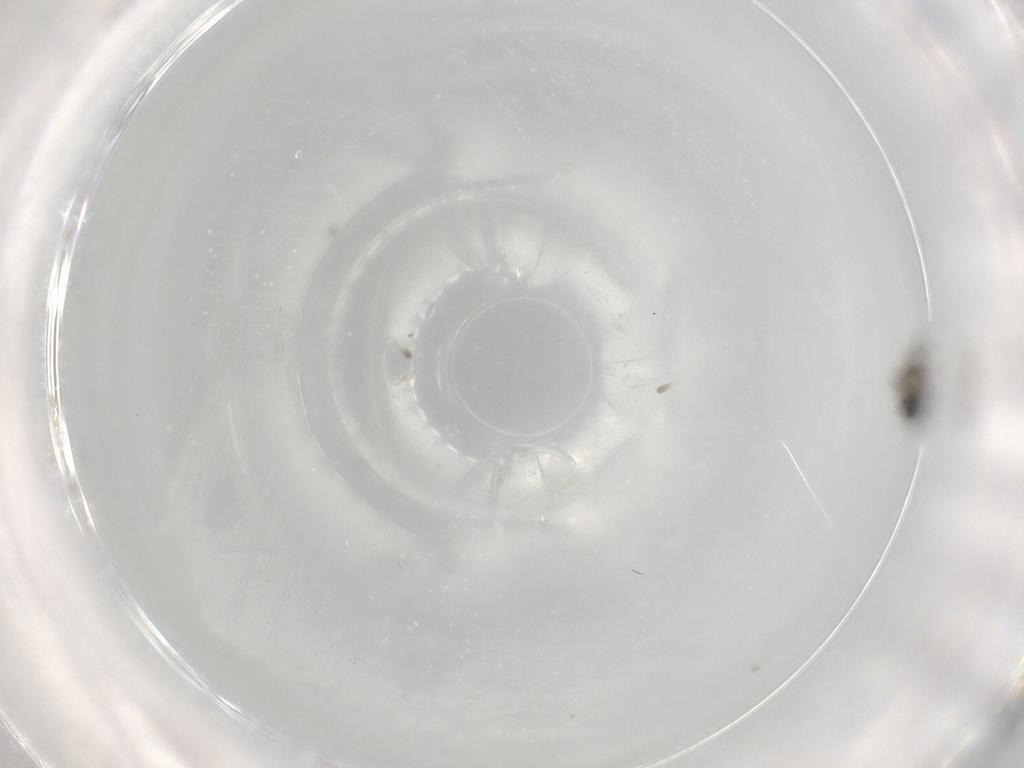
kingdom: Animalia
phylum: Arthropoda
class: Insecta
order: Diptera
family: Cecidomyiidae
